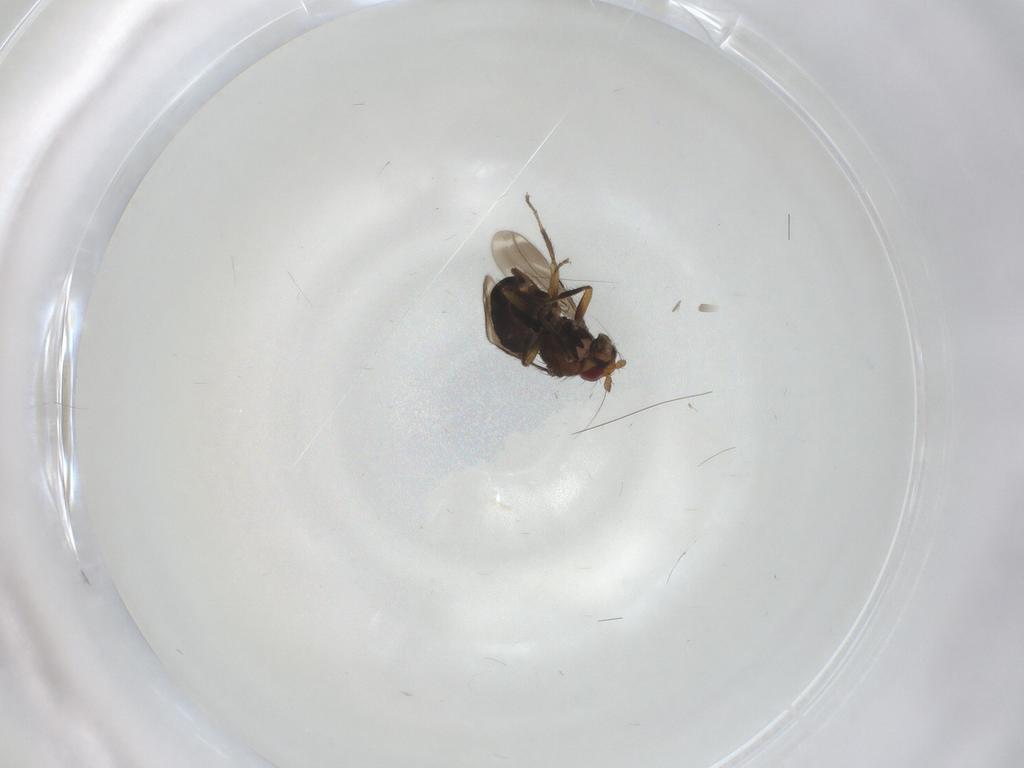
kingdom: Animalia
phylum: Arthropoda
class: Insecta
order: Diptera
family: Sphaeroceridae
